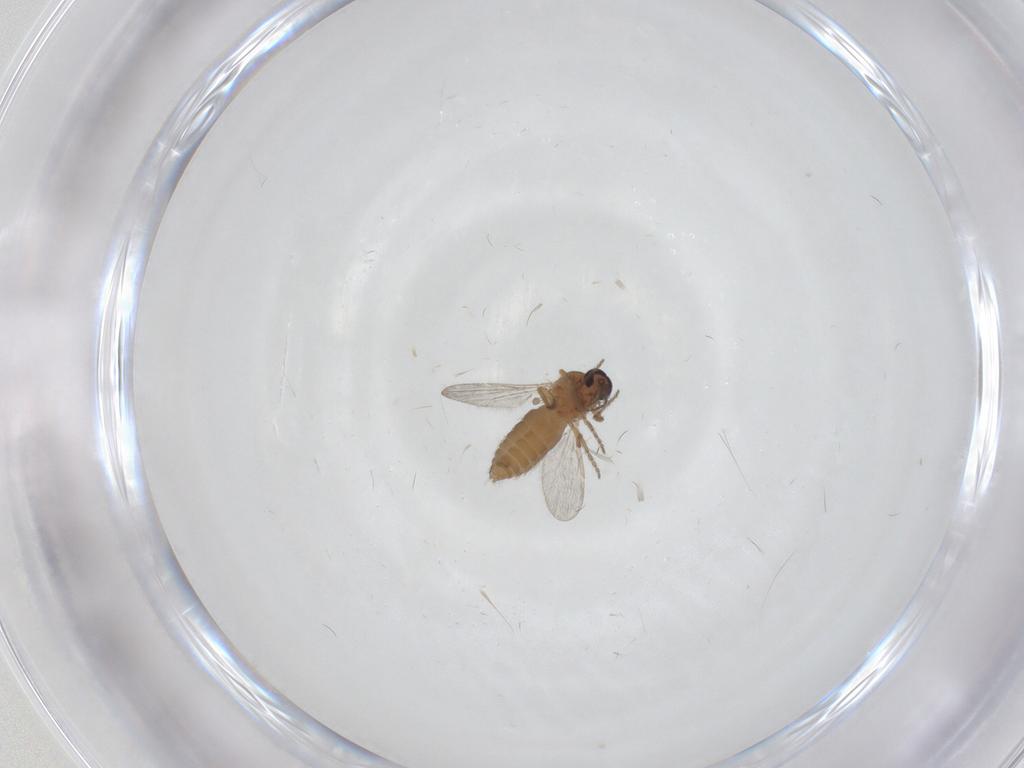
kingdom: Animalia
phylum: Arthropoda
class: Insecta
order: Diptera
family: Ceratopogonidae
